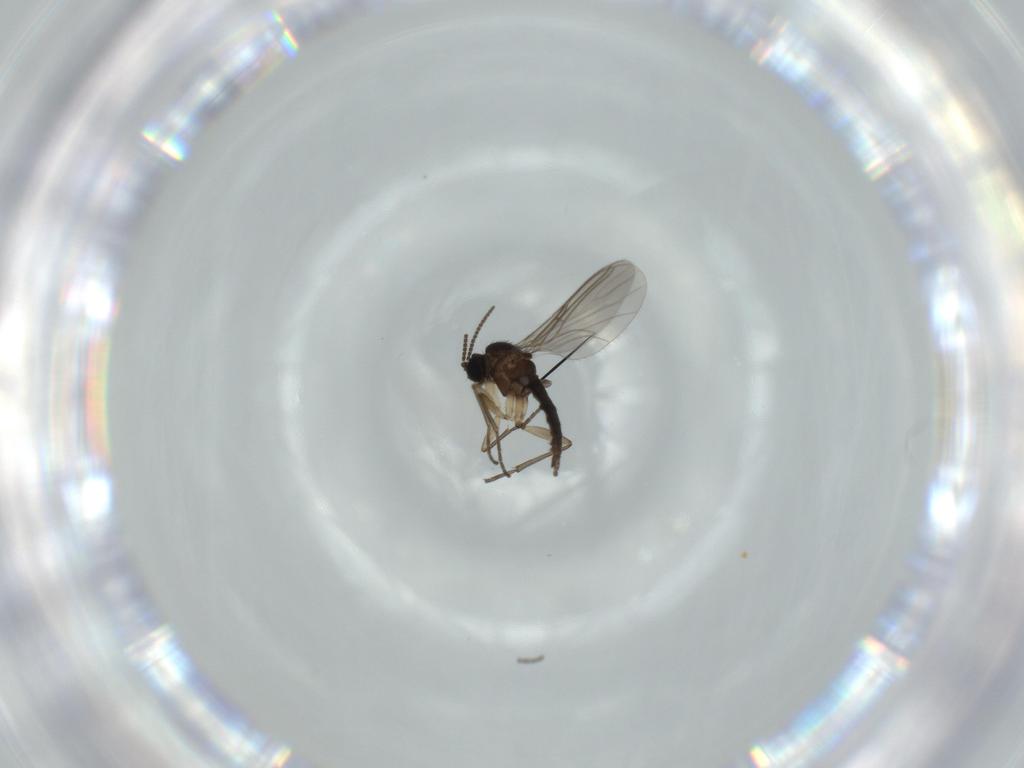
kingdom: Animalia
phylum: Arthropoda
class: Insecta
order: Diptera
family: Sciaridae
